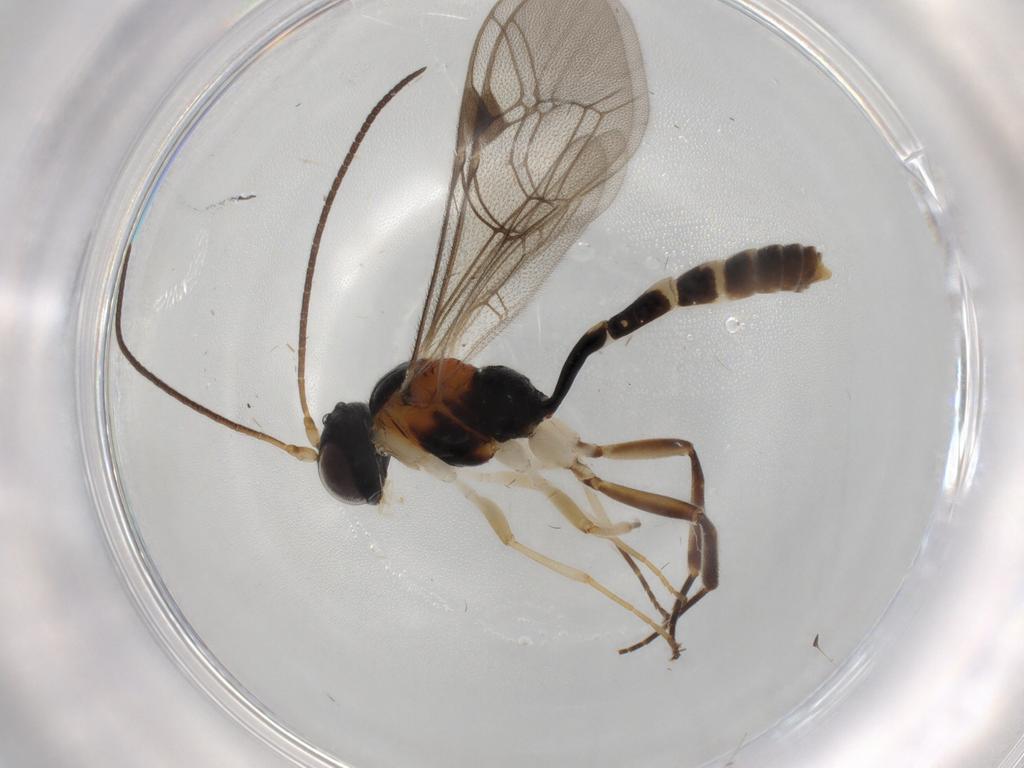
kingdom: Animalia
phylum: Arthropoda
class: Insecta
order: Hymenoptera
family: Ichneumonidae
